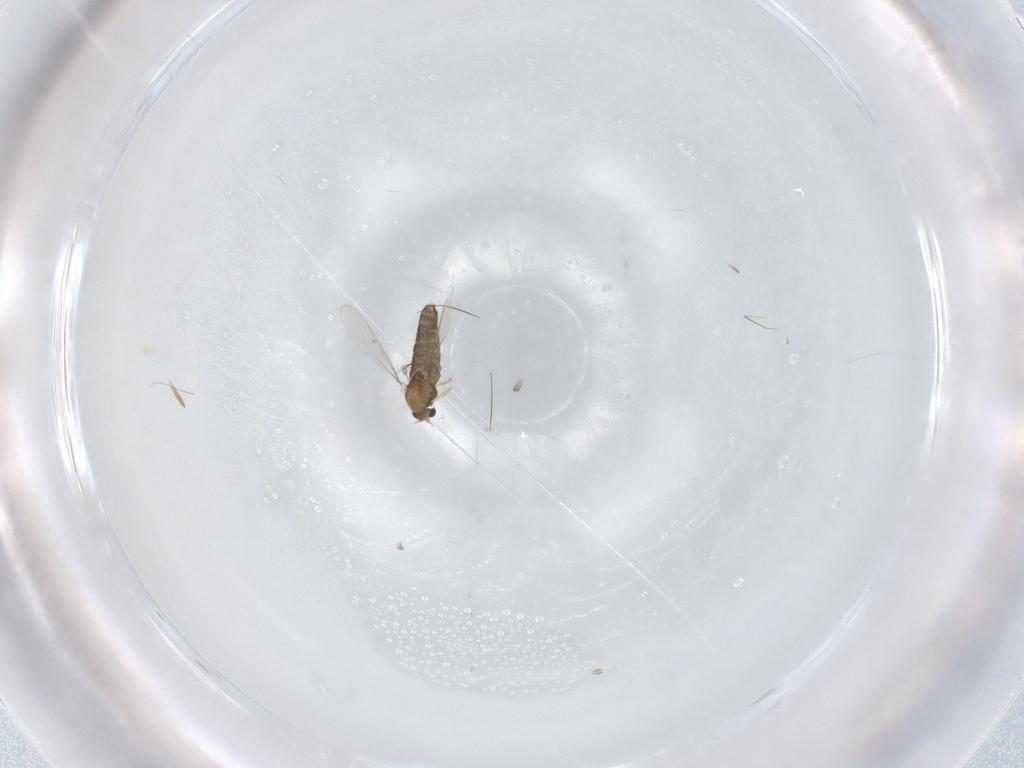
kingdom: Animalia
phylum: Arthropoda
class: Insecta
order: Diptera
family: Chironomidae
